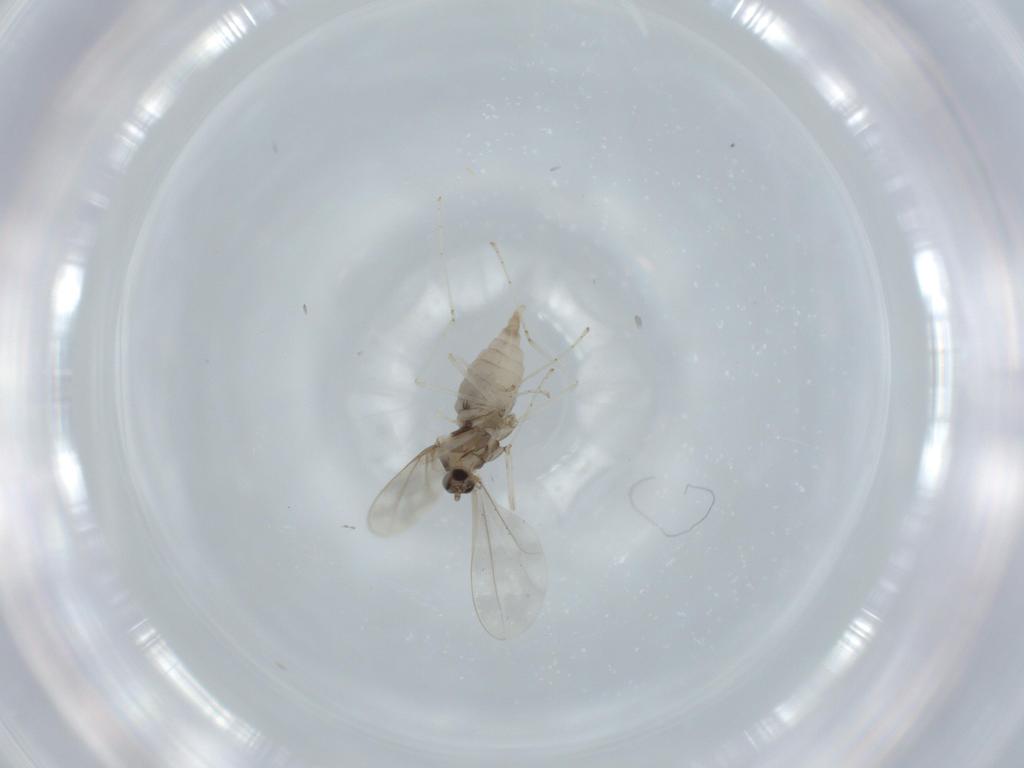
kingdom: Animalia
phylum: Arthropoda
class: Insecta
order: Diptera
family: Cecidomyiidae
